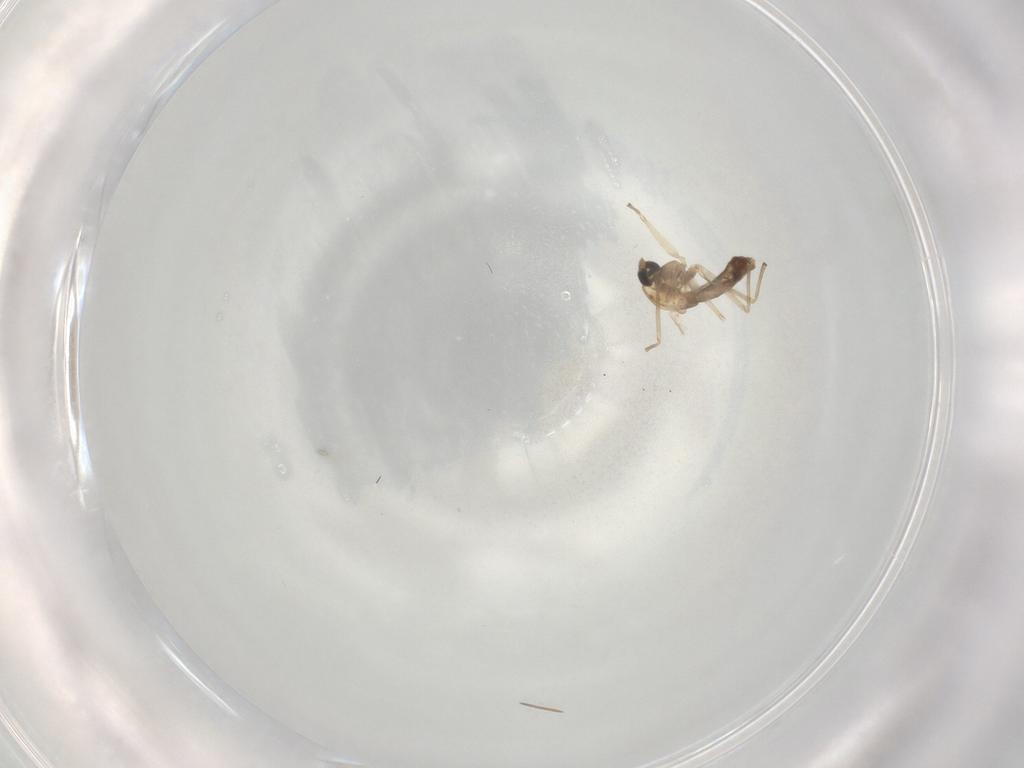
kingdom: Animalia
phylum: Arthropoda
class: Insecta
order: Diptera
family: Chironomidae
